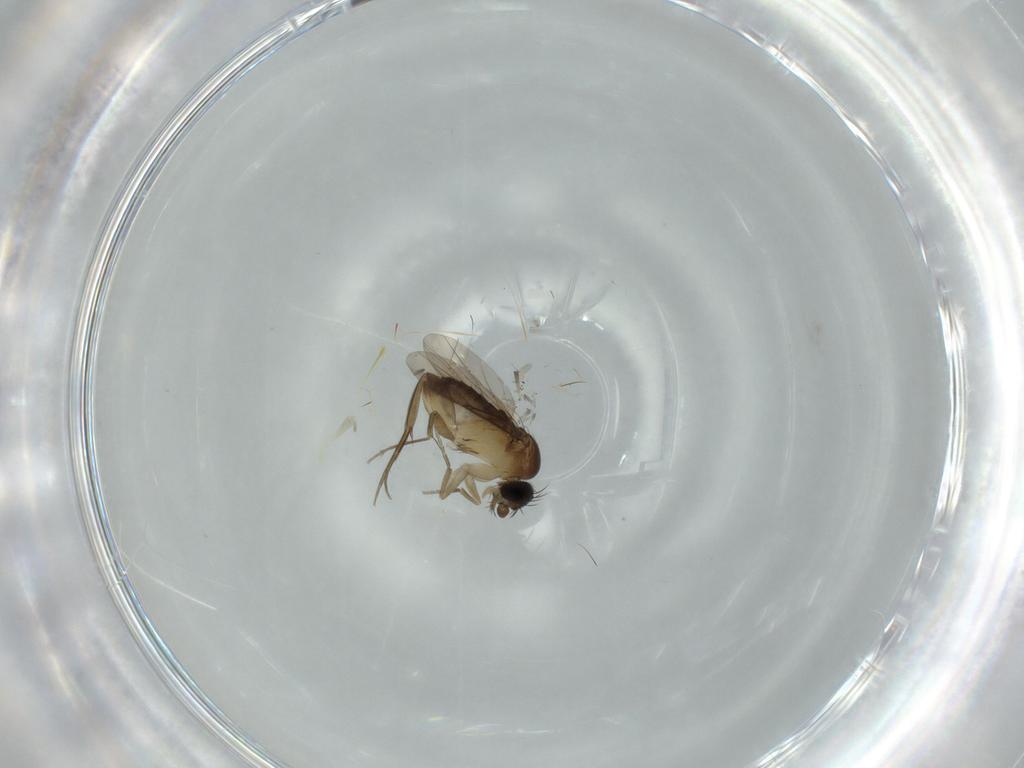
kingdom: Animalia
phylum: Arthropoda
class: Insecta
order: Diptera
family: Phoridae
